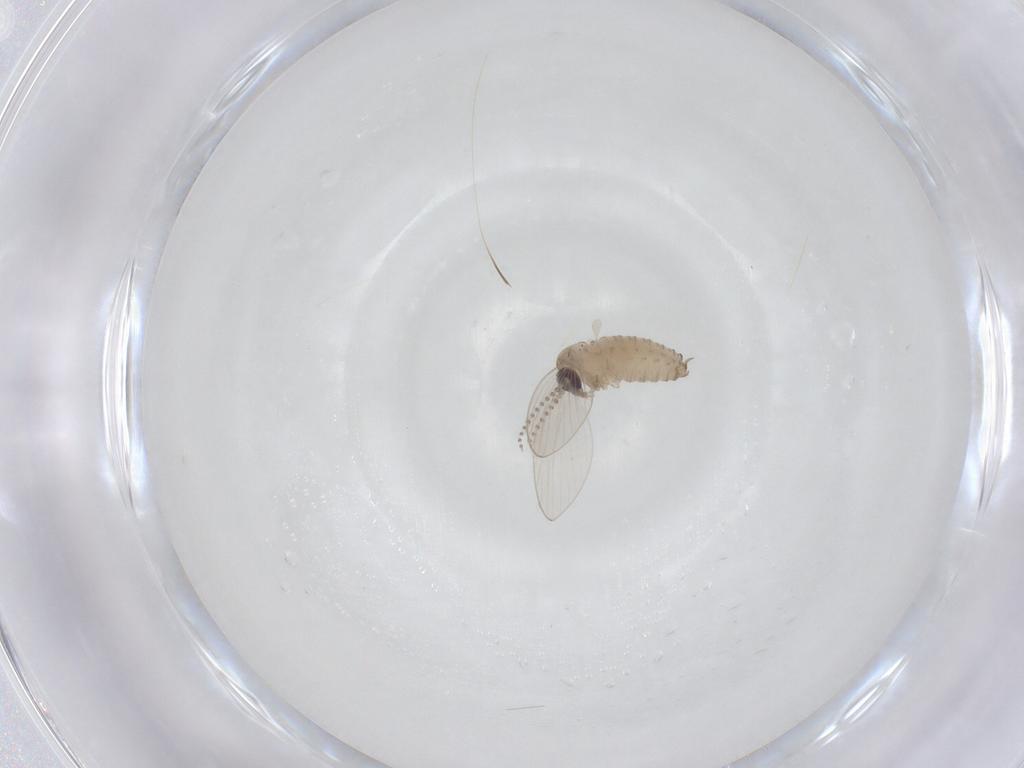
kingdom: Animalia
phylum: Arthropoda
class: Insecta
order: Diptera
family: Psychodidae
